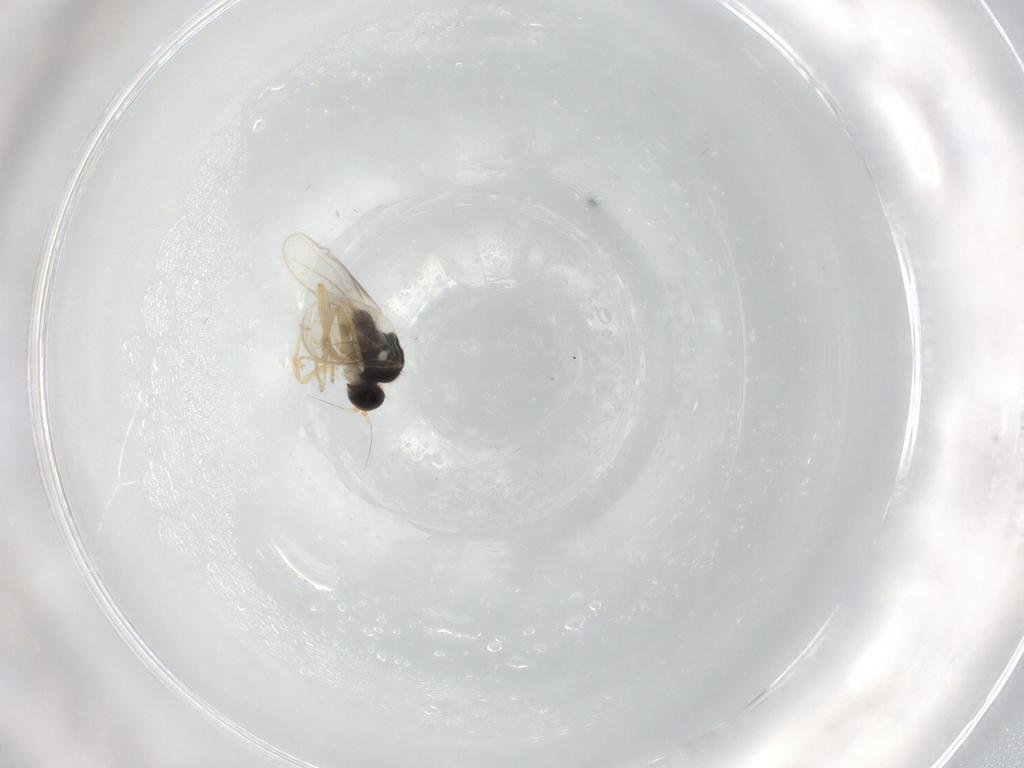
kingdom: Animalia
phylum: Arthropoda
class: Insecta
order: Diptera
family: Hybotidae
